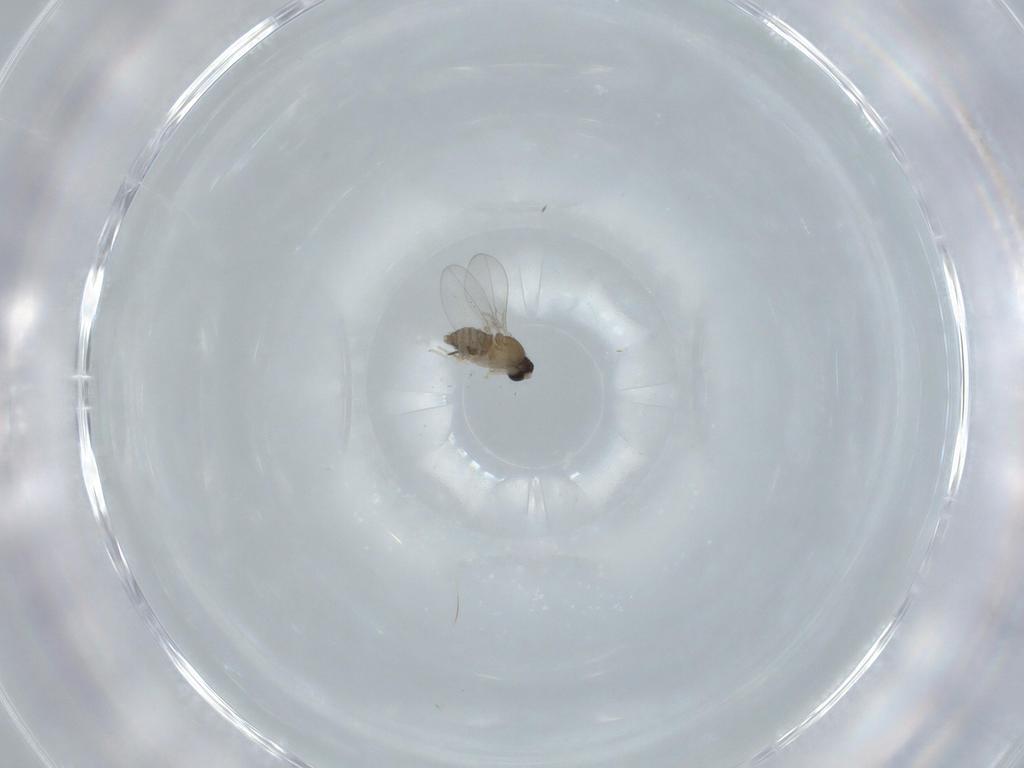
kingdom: Animalia
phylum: Arthropoda
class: Insecta
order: Diptera
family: Cecidomyiidae
